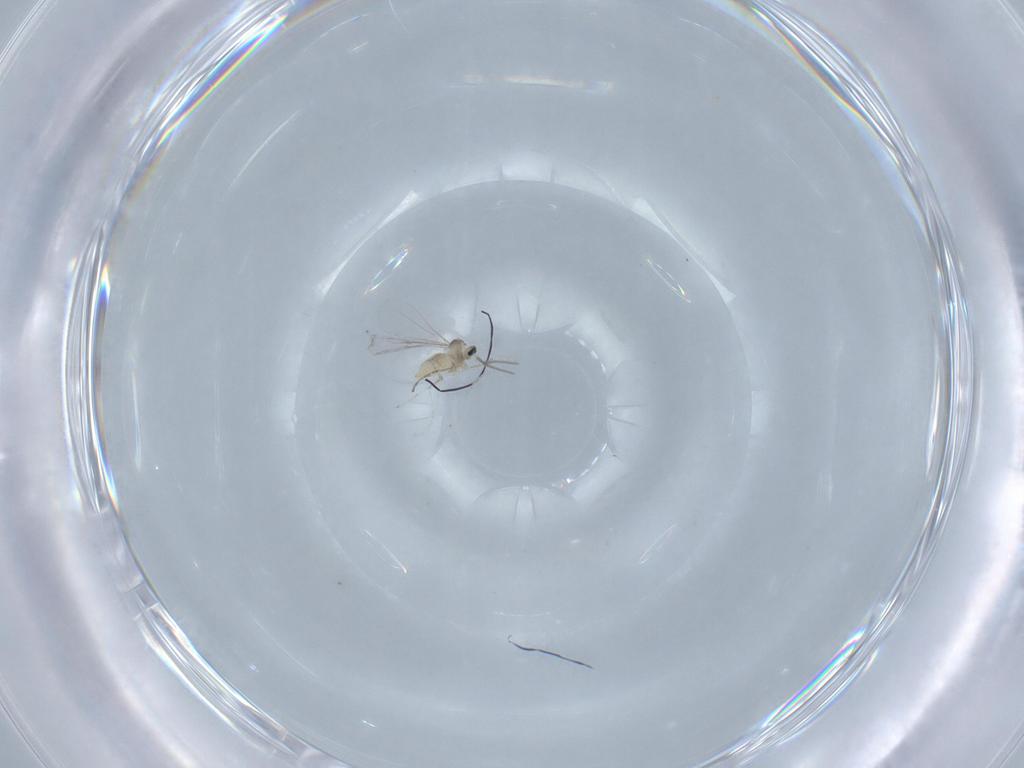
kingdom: Animalia
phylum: Arthropoda
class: Insecta
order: Diptera
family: Cecidomyiidae
